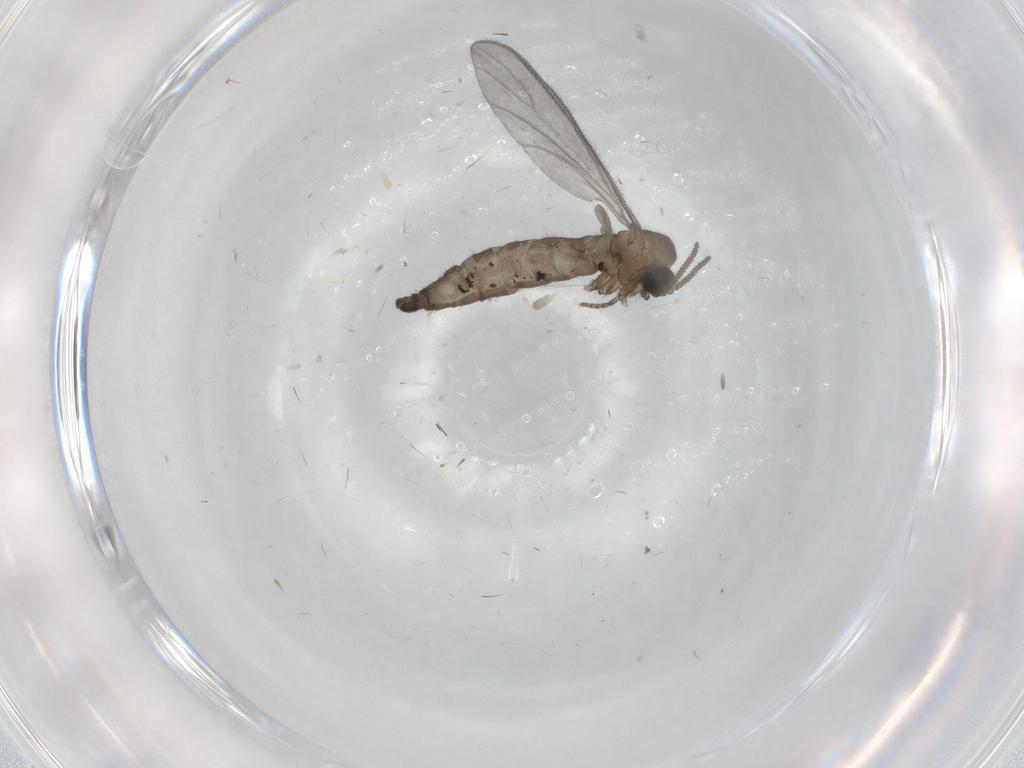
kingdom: Animalia
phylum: Arthropoda
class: Insecta
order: Diptera
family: Sciaridae
